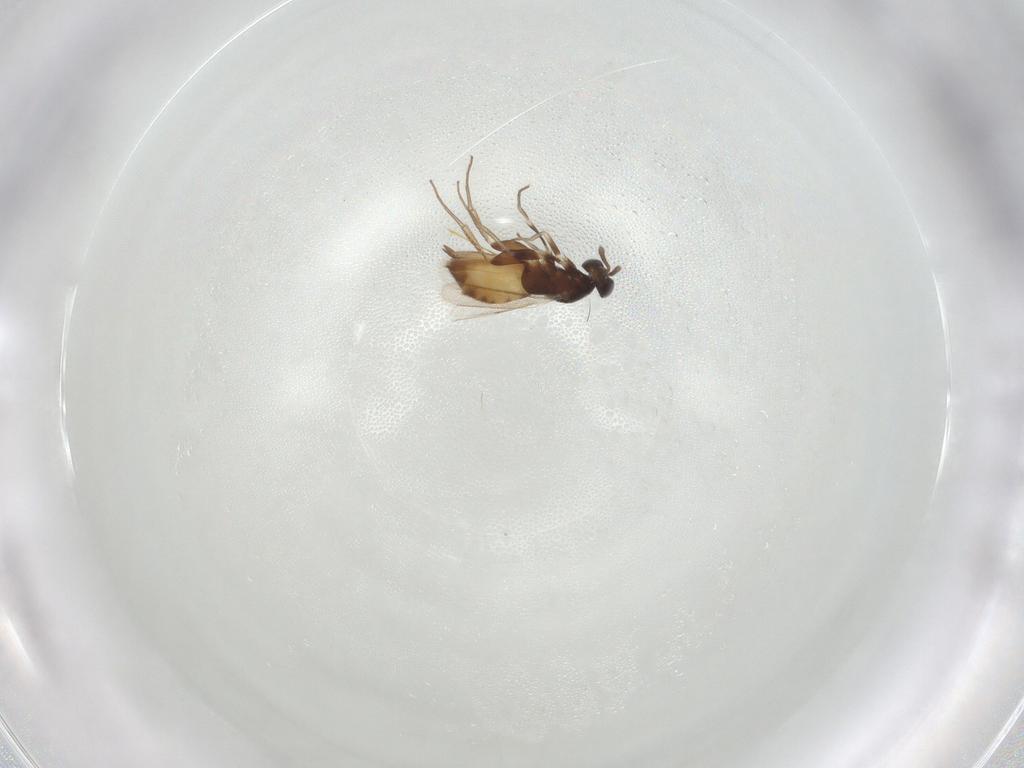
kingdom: Animalia
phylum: Arthropoda
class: Insecta
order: Hymenoptera
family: Eulophidae
